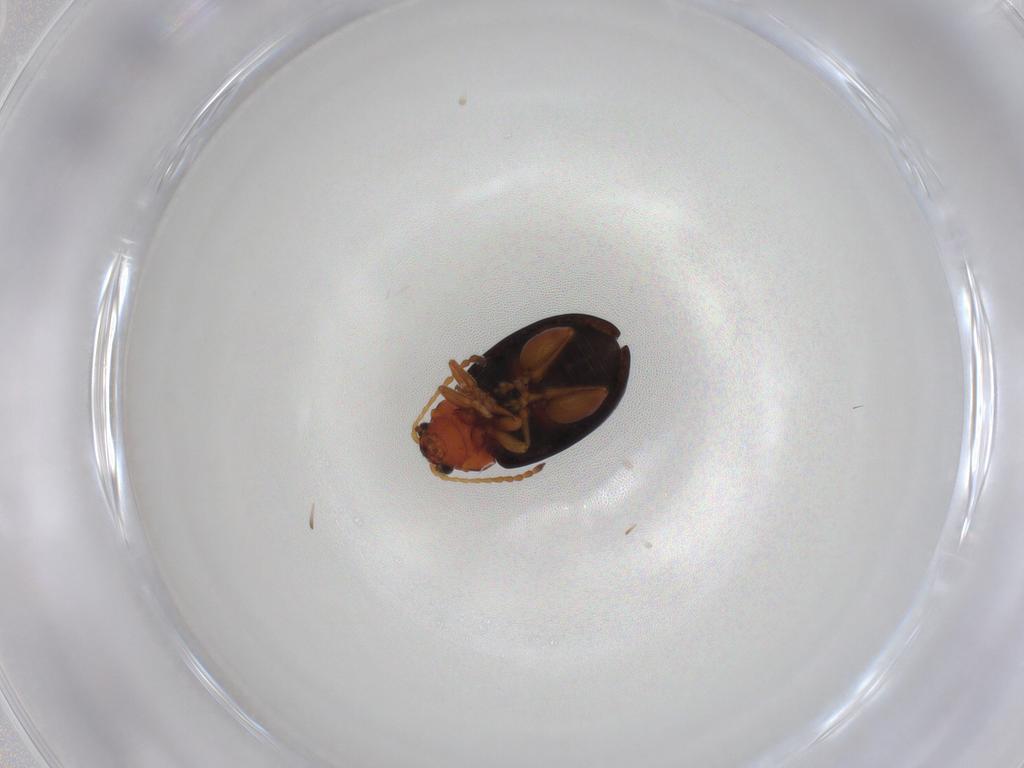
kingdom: Animalia
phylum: Arthropoda
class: Insecta
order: Coleoptera
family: Chrysomelidae
